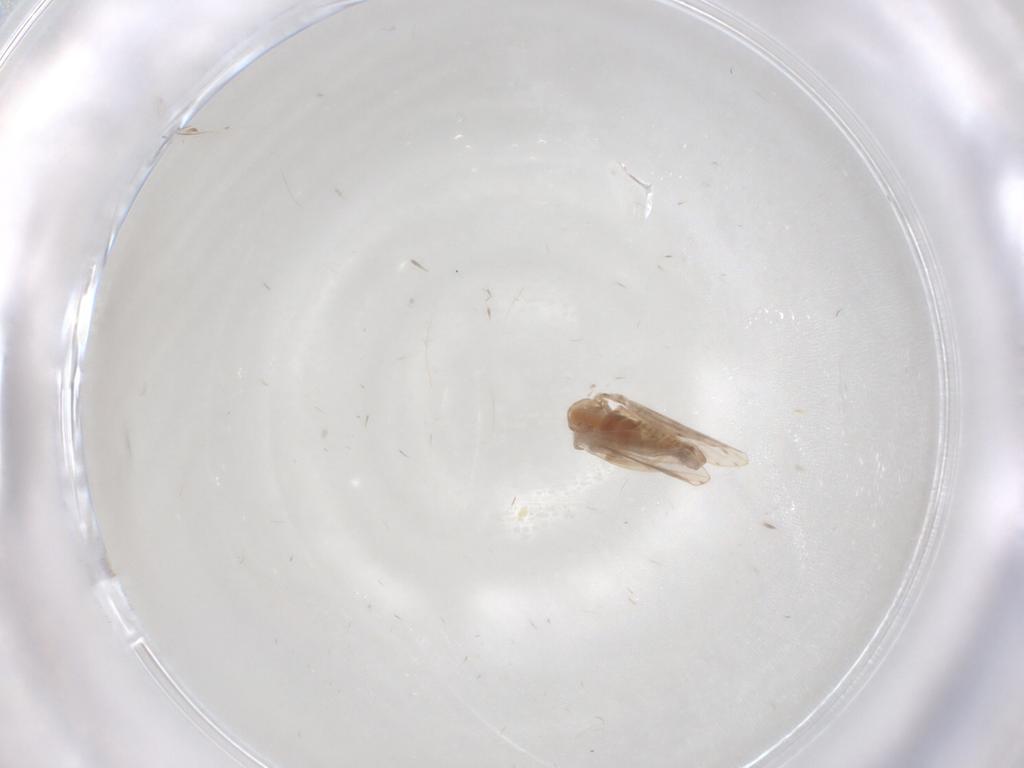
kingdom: Animalia
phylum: Arthropoda
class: Insecta
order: Diptera
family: Psychodidae
